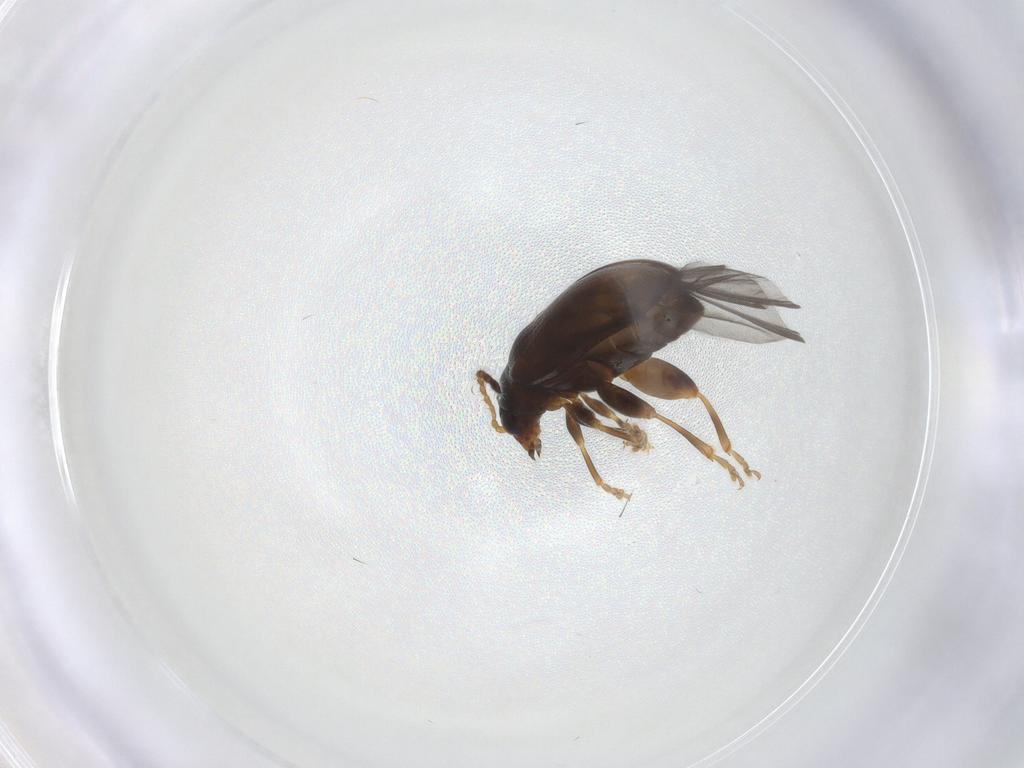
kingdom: Animalia
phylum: Arthropoda
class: Insecta
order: Coleoptera
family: Chrysomelidae
